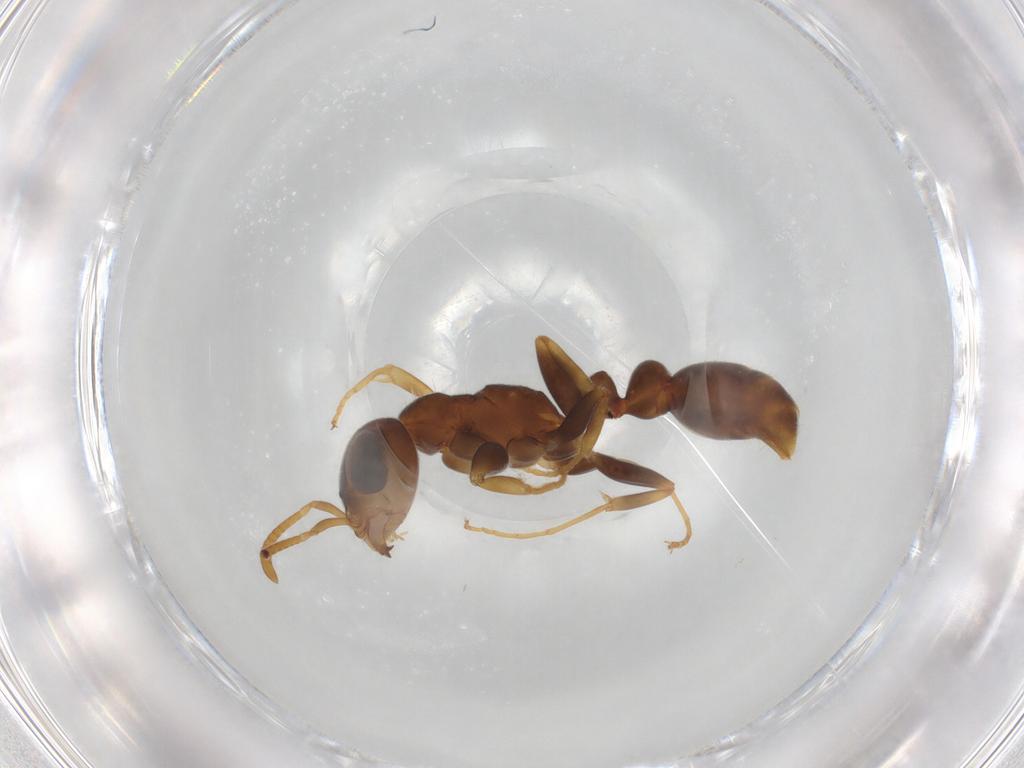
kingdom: Animalia
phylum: Arthropoda
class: Insecta
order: Hymenoptera
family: Formicidae
